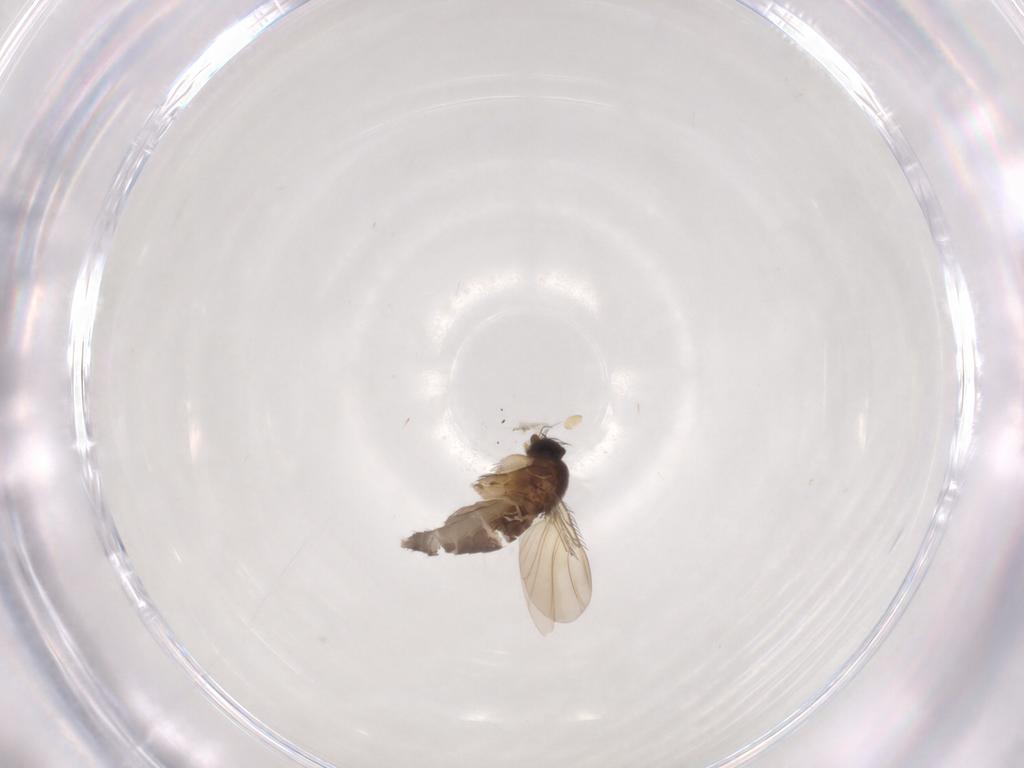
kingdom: Animalia
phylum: Arthropoda
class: Insecta
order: Diptera
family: Phoridae
